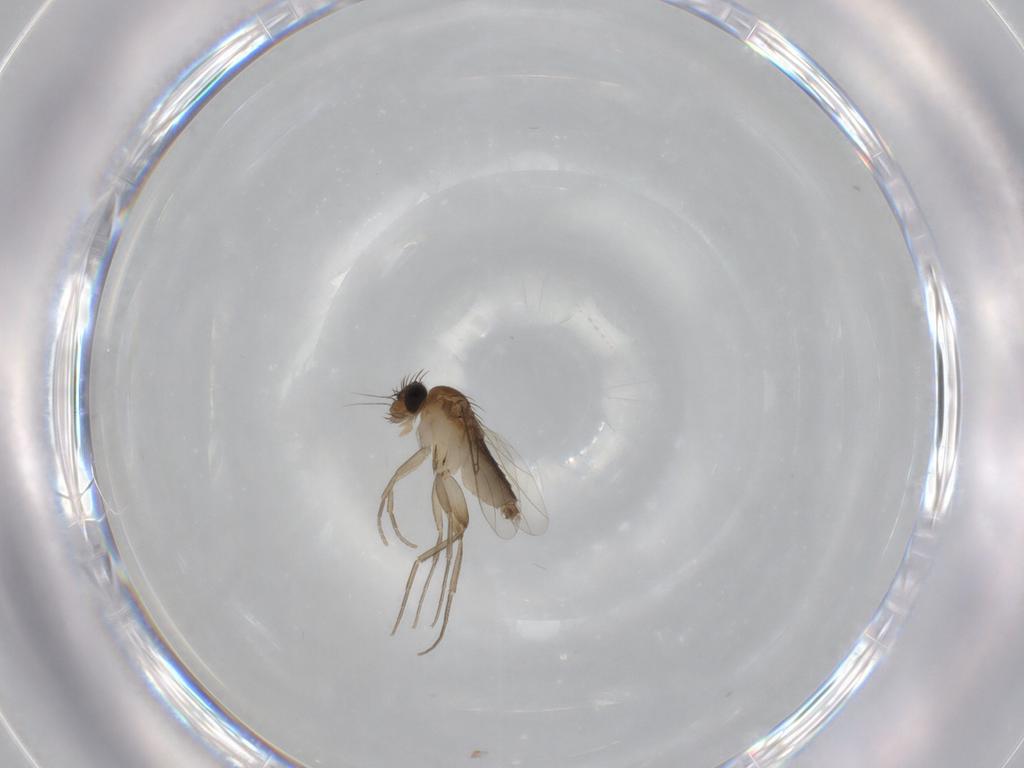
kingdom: Animalia
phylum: Arthropoda
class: Insecta
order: Diptera
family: Phoridae
